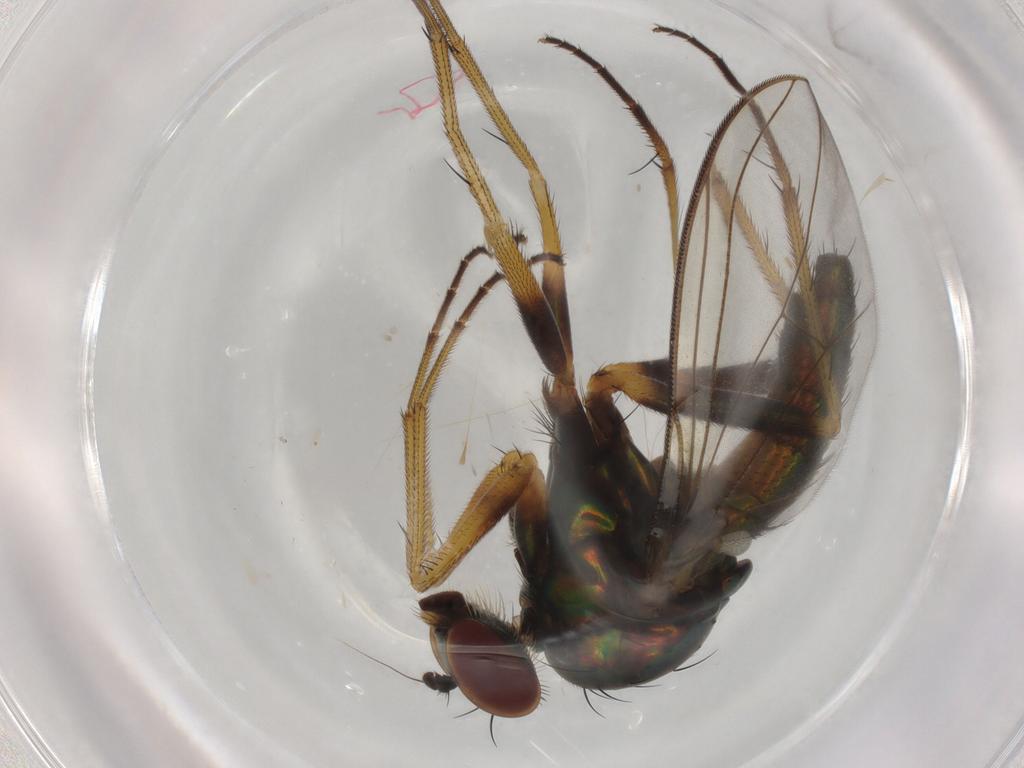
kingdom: Animalia
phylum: Arthropoda
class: Insecta
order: Diptera
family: Dolichopodidae
